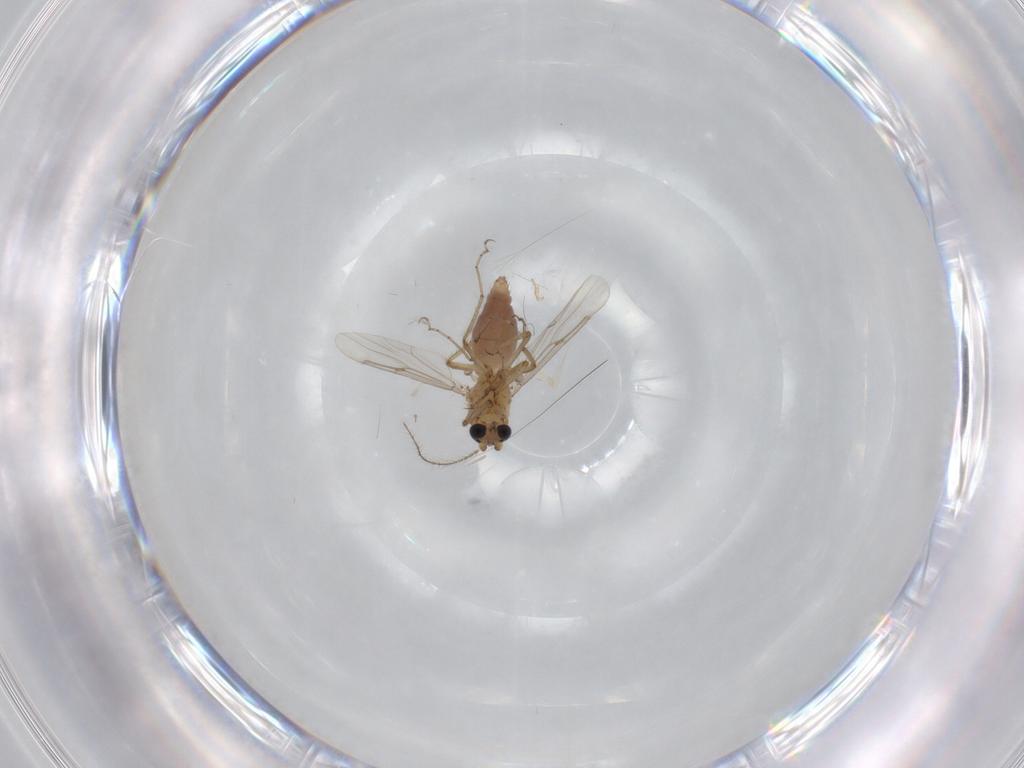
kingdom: Animalia
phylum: Arthropoda
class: Insecta
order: Diptera
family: Ceratopogonidae
